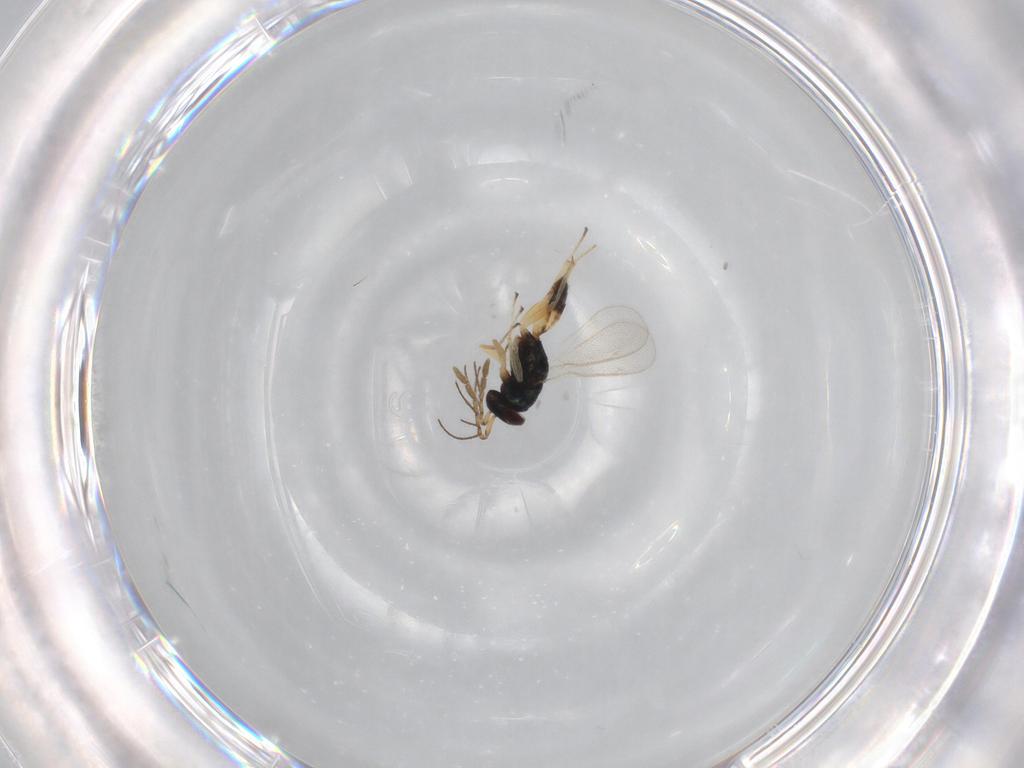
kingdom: Animalia
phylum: Arthropoda
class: Insecta
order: Hymenoptera
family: Eulophidae
